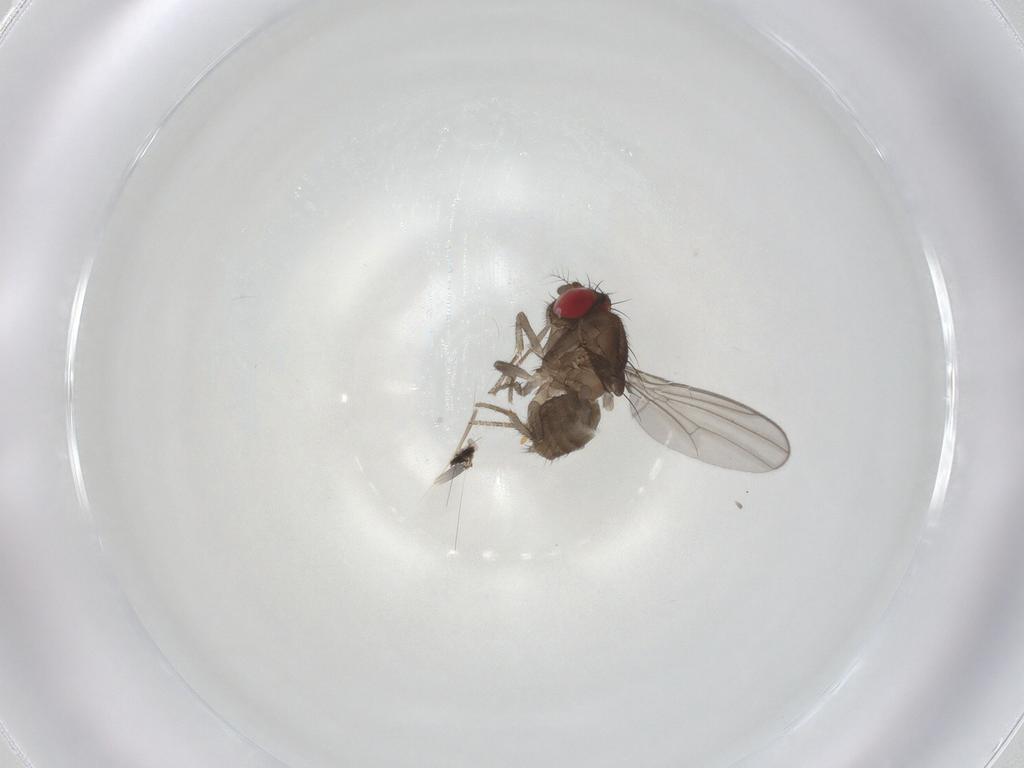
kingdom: Animalia
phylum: Arthropoda
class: Insecta
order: Diptera
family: Drosophilidae
